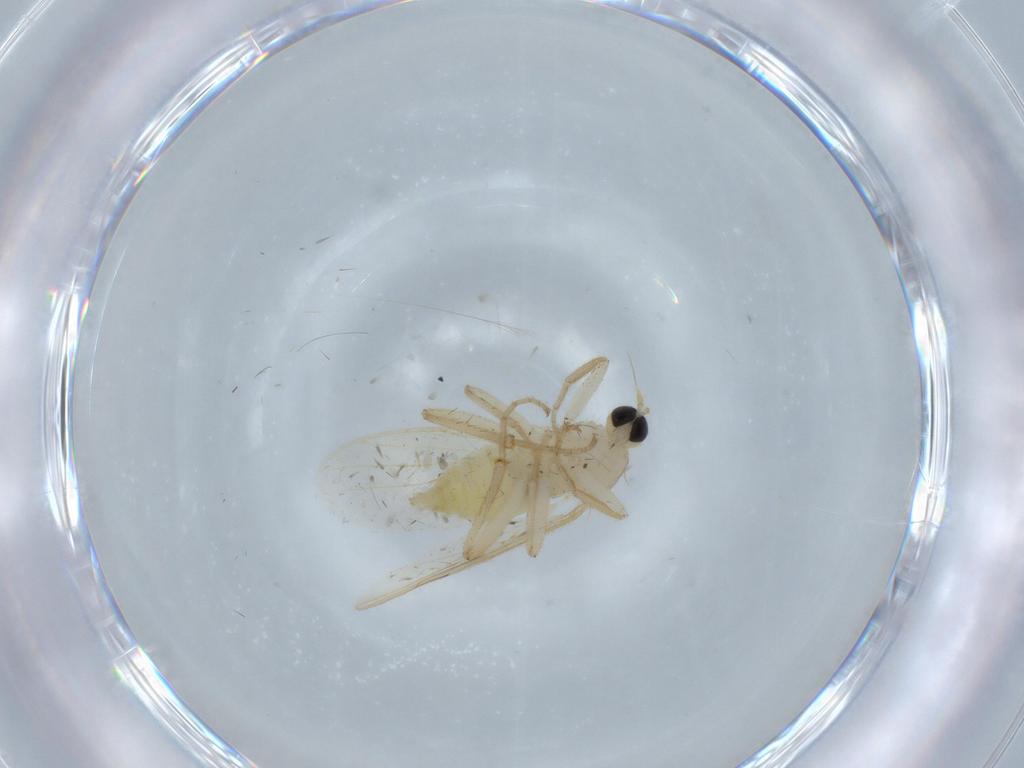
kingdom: Animalia
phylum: Arthropoda
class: Insecta
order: Diptera
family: Hybotidae
